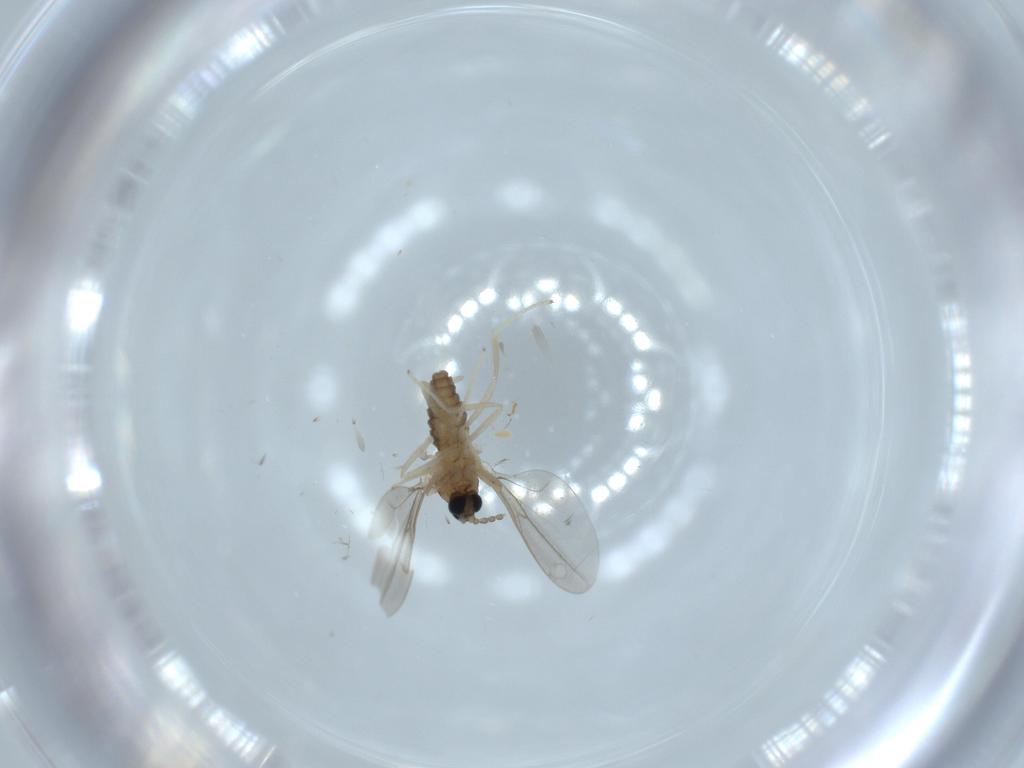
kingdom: Animalia
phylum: Arthropoda
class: Insecta
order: Diptera
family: Cecidomyiidae
